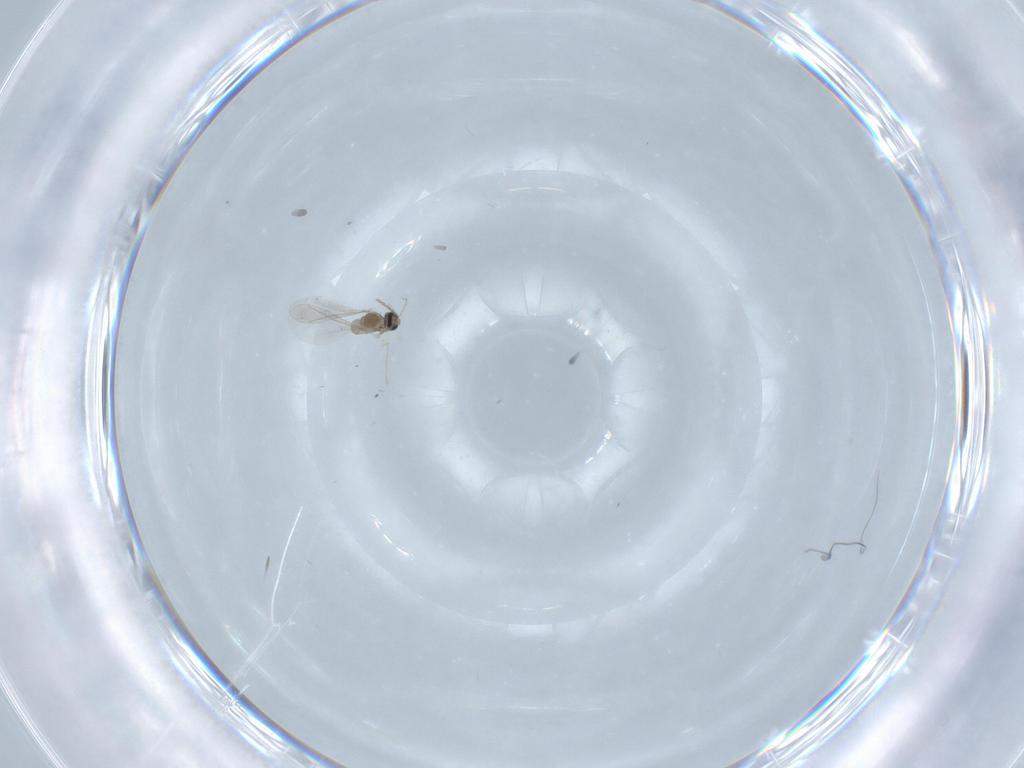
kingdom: Animalia
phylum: Arthropoda
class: Insecta
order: Diptera
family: Cecidomyiidae
